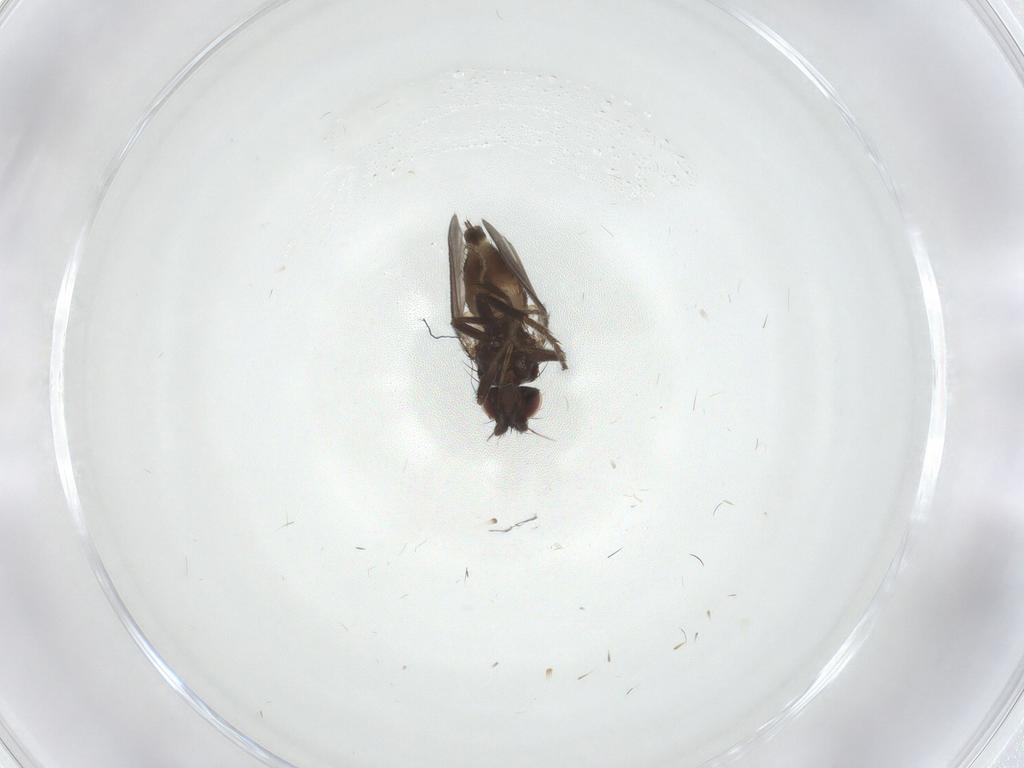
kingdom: Animalia
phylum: Arthropoda
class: Insecta
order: Diptera
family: Milichiidae
